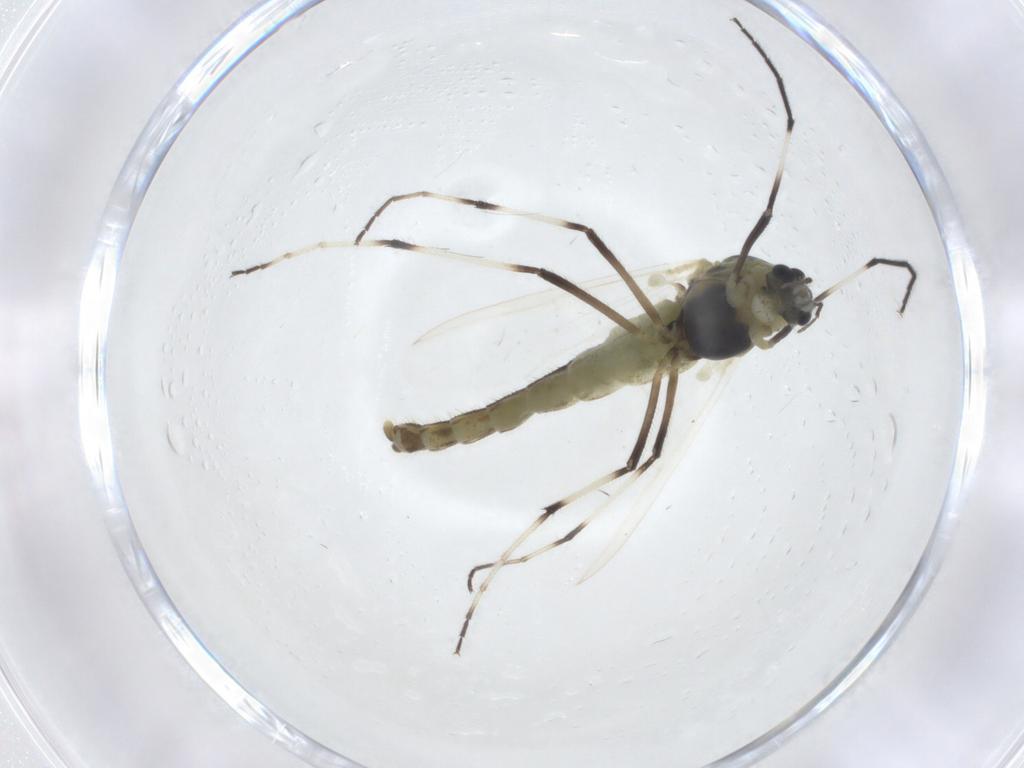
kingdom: Animalia
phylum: Arthropoda
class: Insecta
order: Diptera
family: Chironomidae
